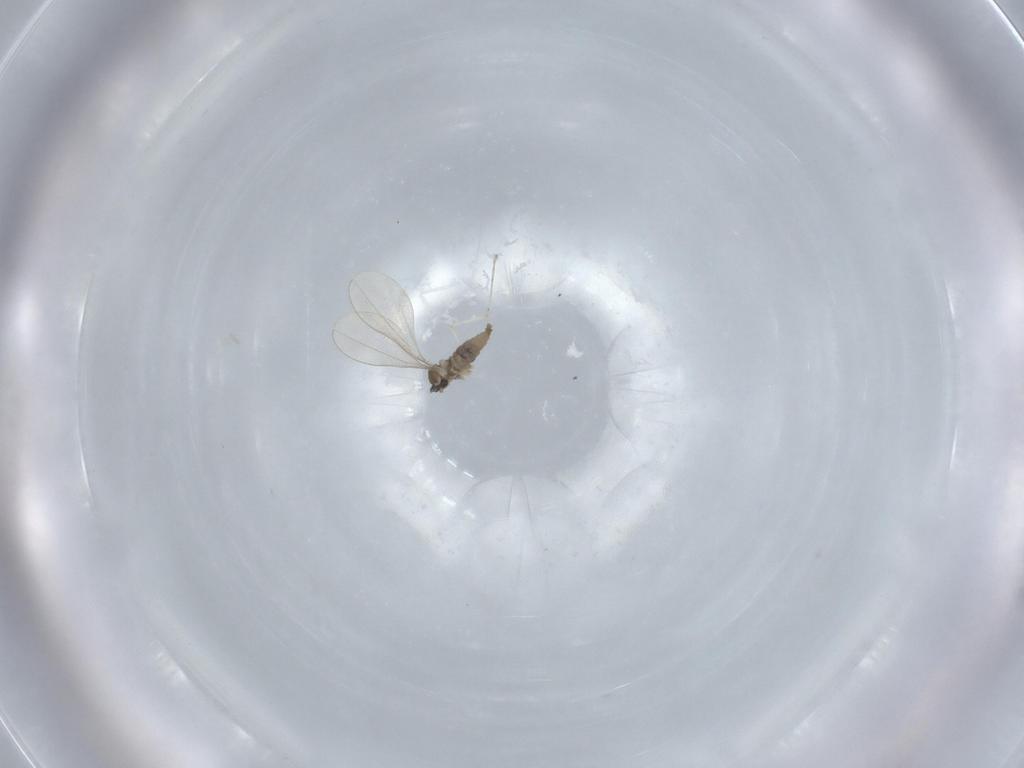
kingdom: Animalia
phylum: Arthropoda
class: Insecta
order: Diptera
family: Cecidomyiidae
